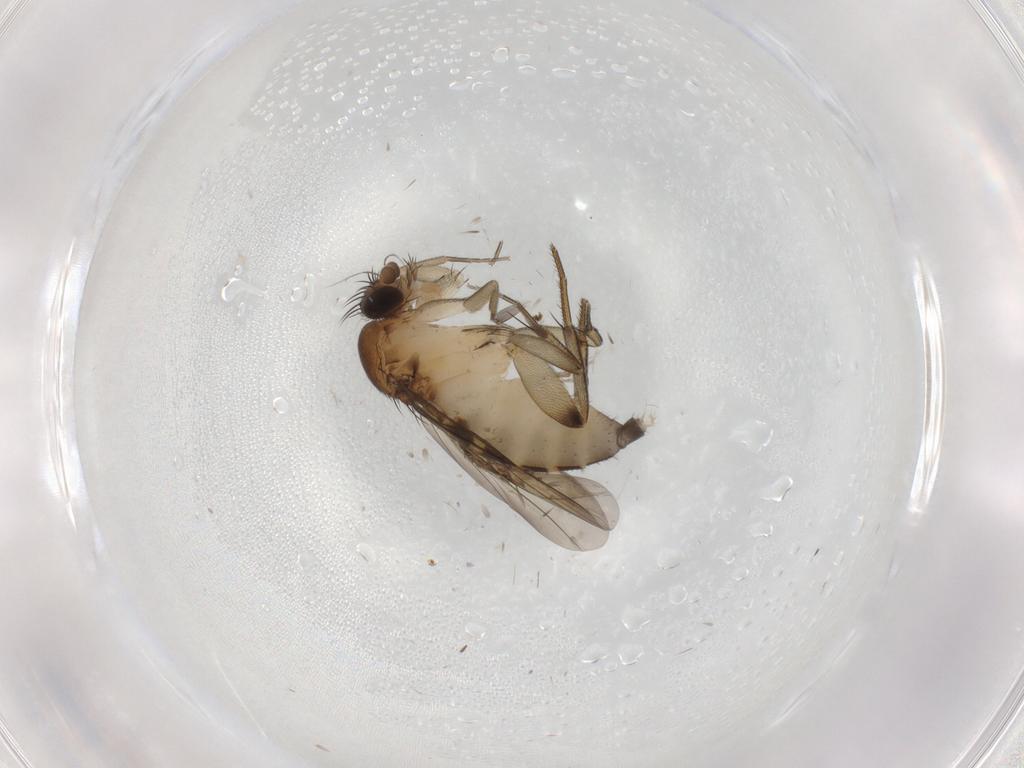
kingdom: Animalia
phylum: Arthropoda
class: Insecta
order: Diptera
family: Phoridae
